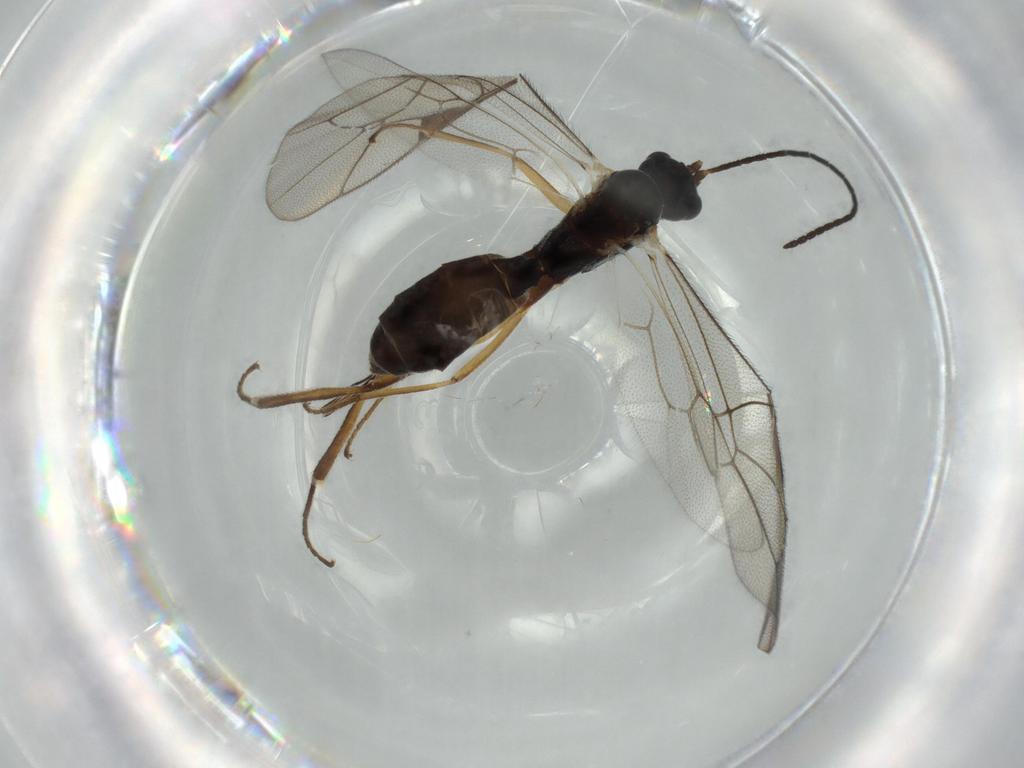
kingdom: Animalia
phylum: Arthropoda
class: Insecta
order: Hymenoptera
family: Ichneumonidae
